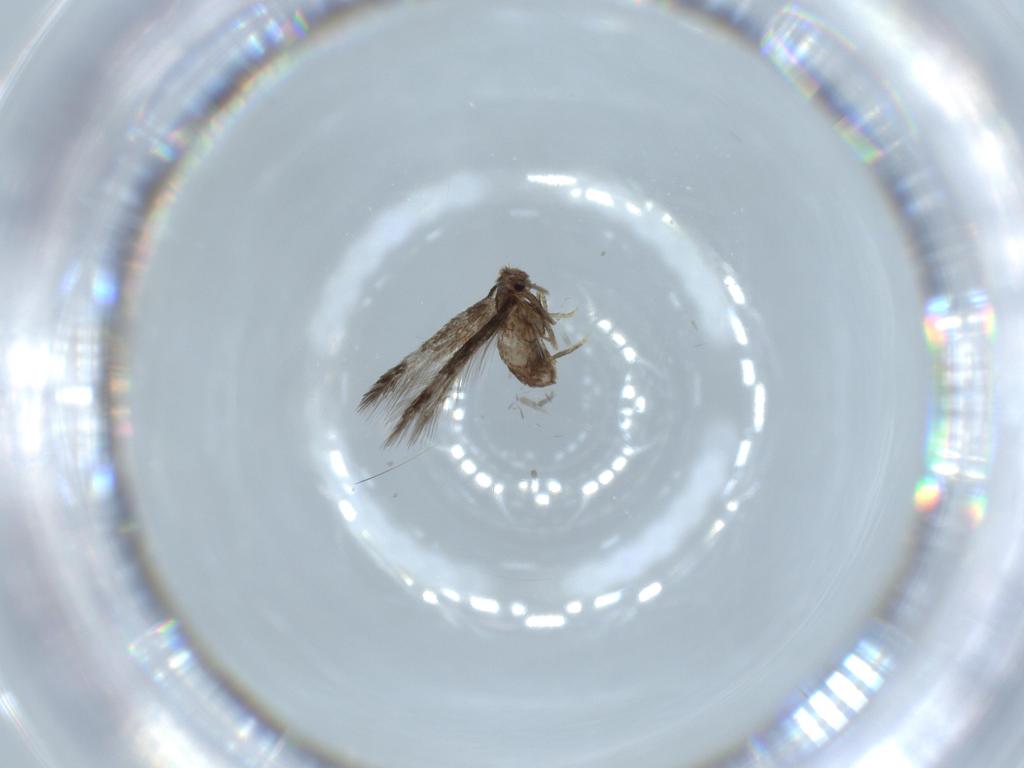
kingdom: Animalia
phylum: Arthropoda
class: Insecta
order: Lepidoptera
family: Nepticulidae
